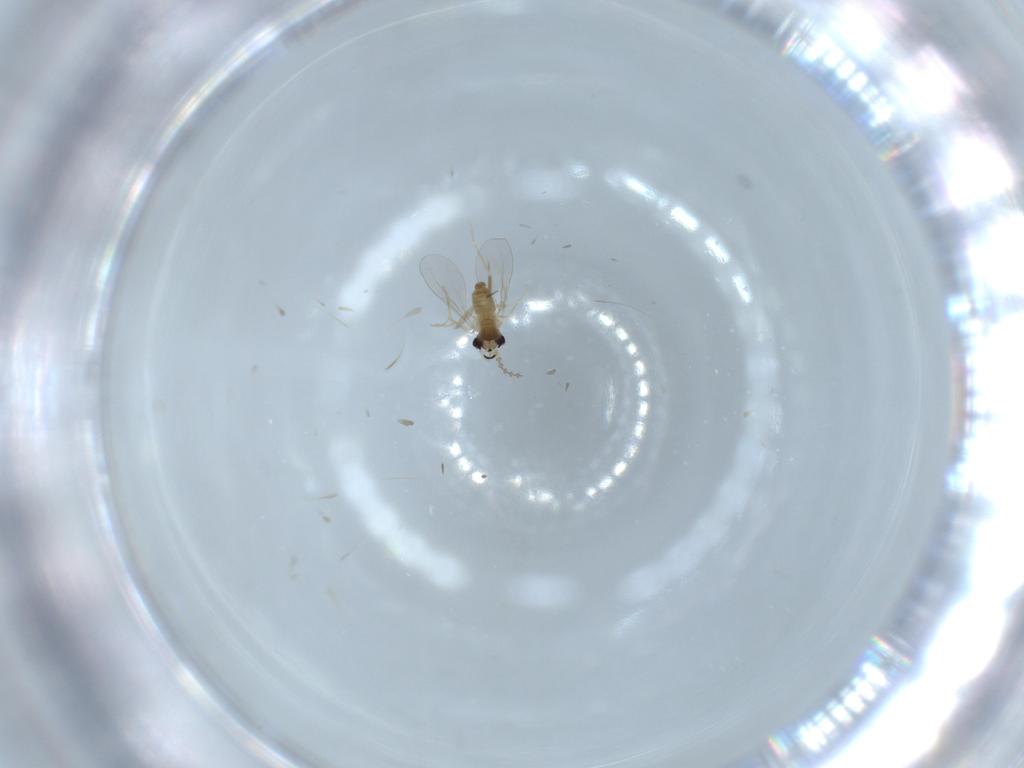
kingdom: Animalia
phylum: Arthropoda
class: Insecta
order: Diptera
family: Cecidomyiidae
